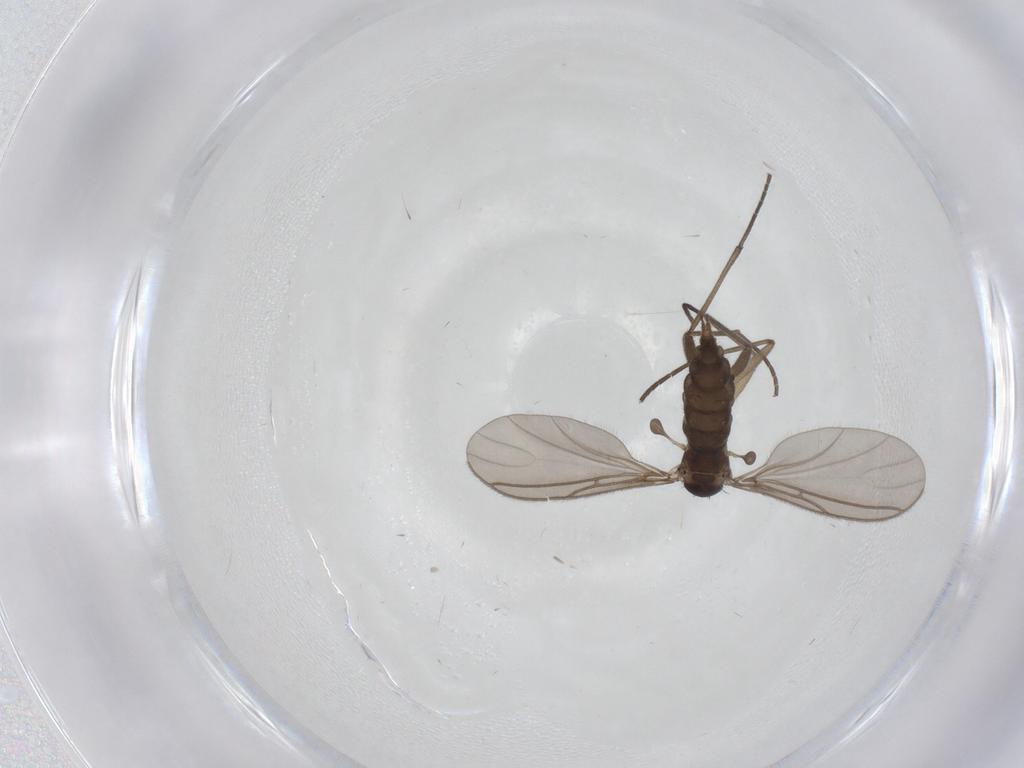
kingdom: Animalia
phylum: Arthropoda
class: Insecta
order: Diptera
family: Sciaridae
